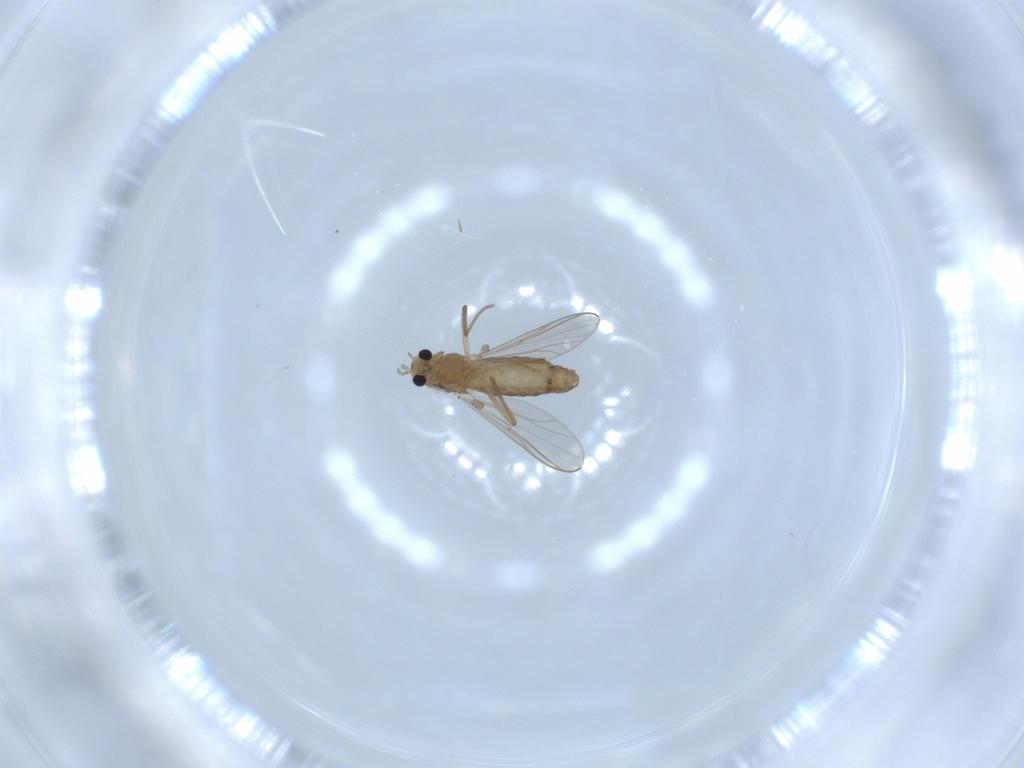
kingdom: Animalia
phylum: Arthropoda
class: Insecta
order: Diptera
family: Chironomidae
